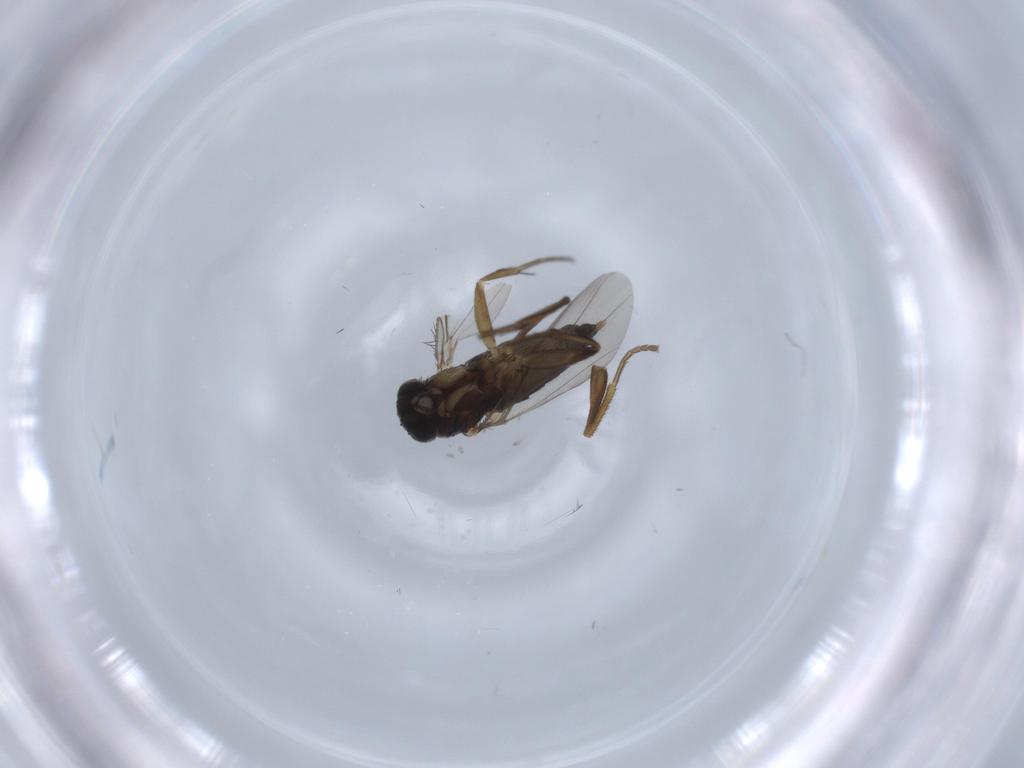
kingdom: Animalia
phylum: Arthropoda
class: Insecta
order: Diptera
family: Phoridae
